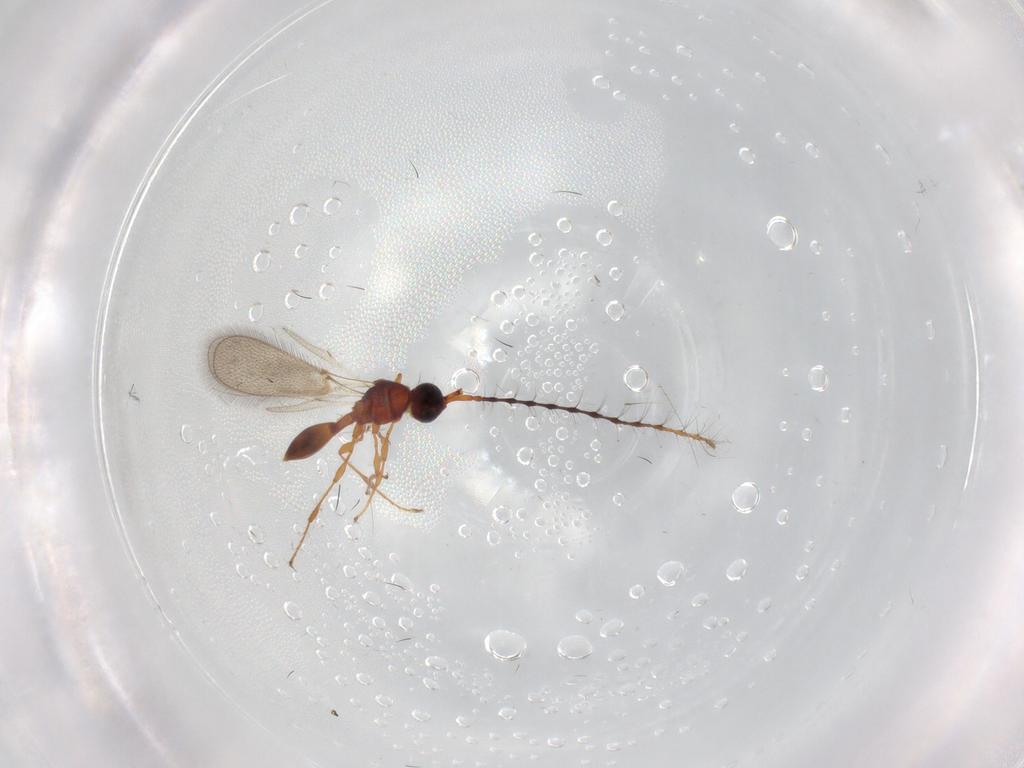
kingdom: Animalia
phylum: Arthropoda
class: Insecta
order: Hymenoptera
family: Diapriidae
